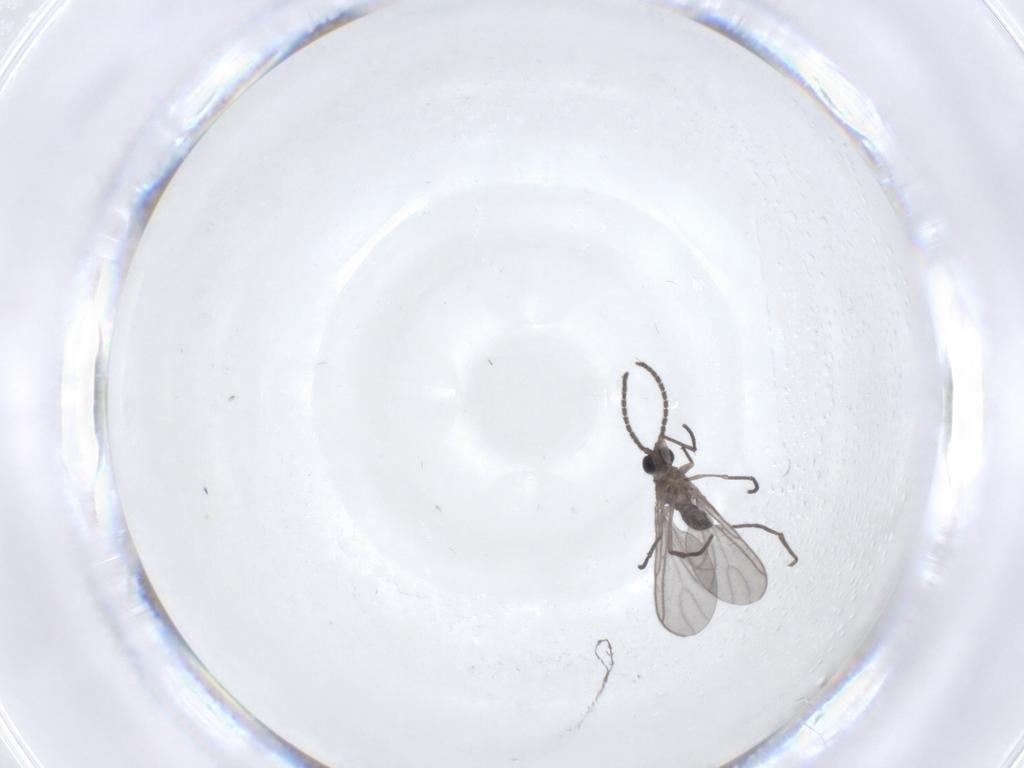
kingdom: Animalia
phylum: Arthropoda
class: Insecta
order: Diptera
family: Sciaridae
